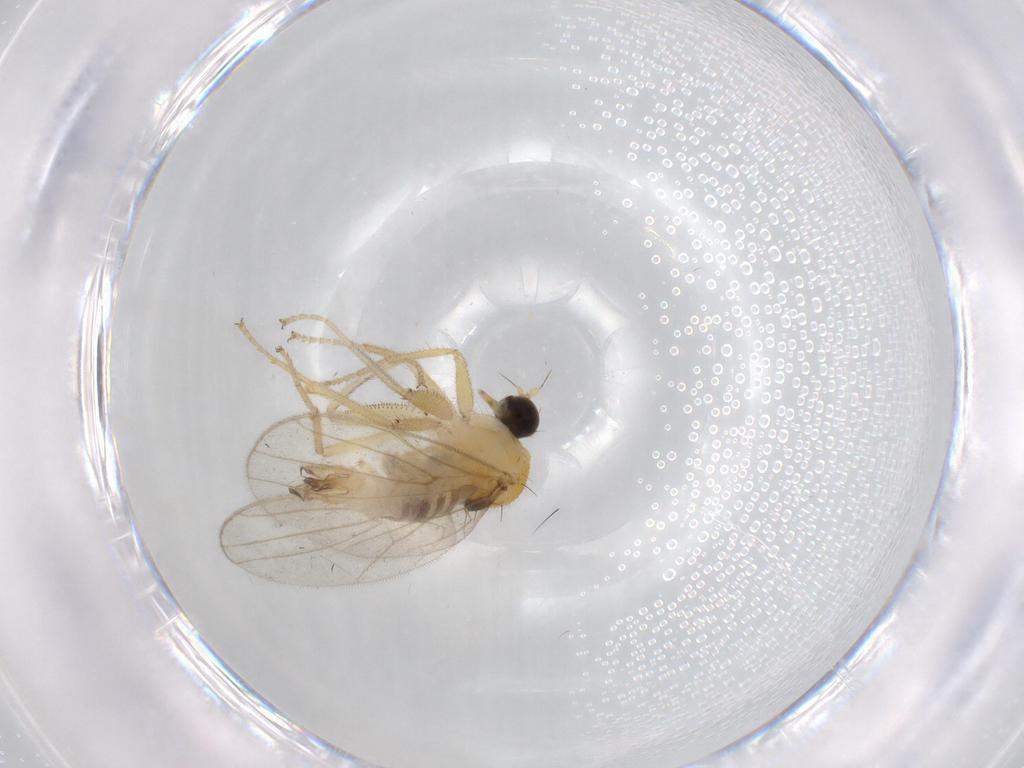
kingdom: Animalia
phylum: Arthropoda
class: Insecta
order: Diptera
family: Hybotidae
